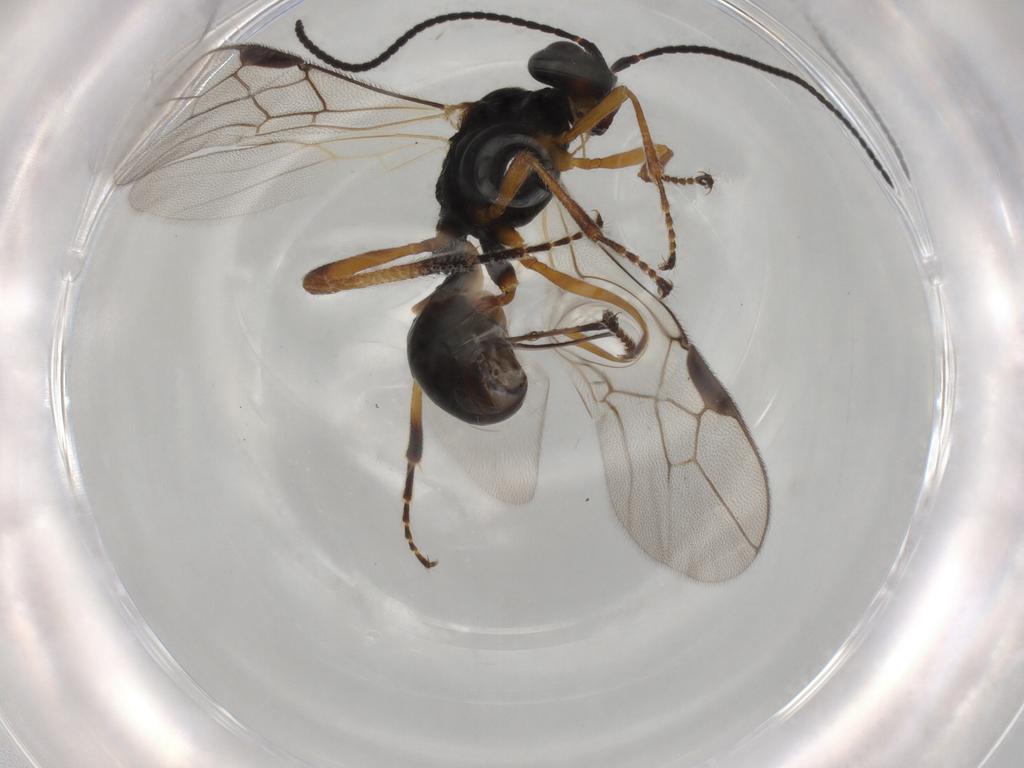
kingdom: Animalia
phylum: Arthropoda
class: Insecta
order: Hymenoptera
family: Braconidae
